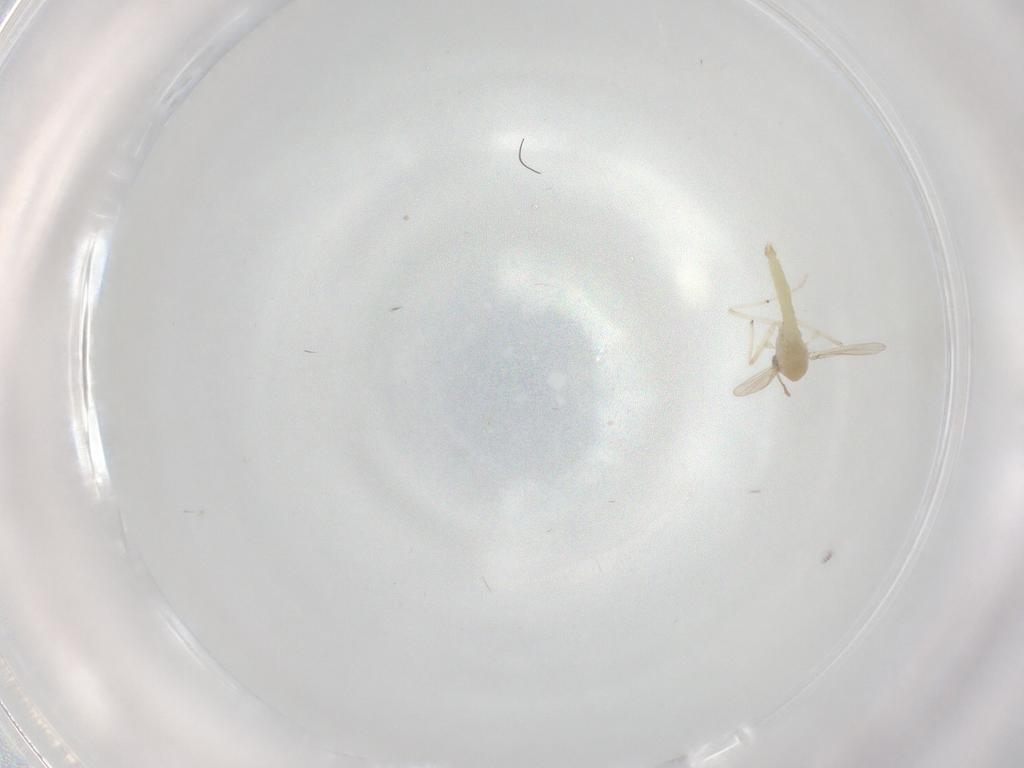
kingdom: Animalia
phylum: Arthropoda
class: Insecta
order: Diptera
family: Chironomidae
